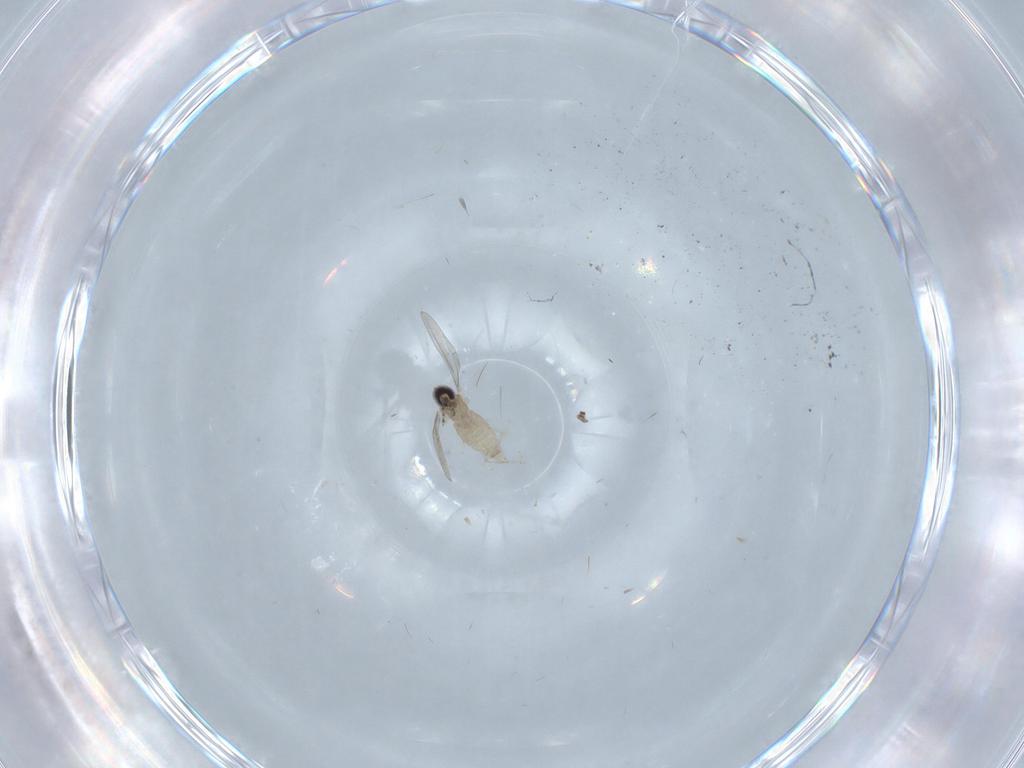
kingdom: Animalia
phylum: Arthropoda
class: Insecta
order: Diptera
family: Cecidomyiidae
